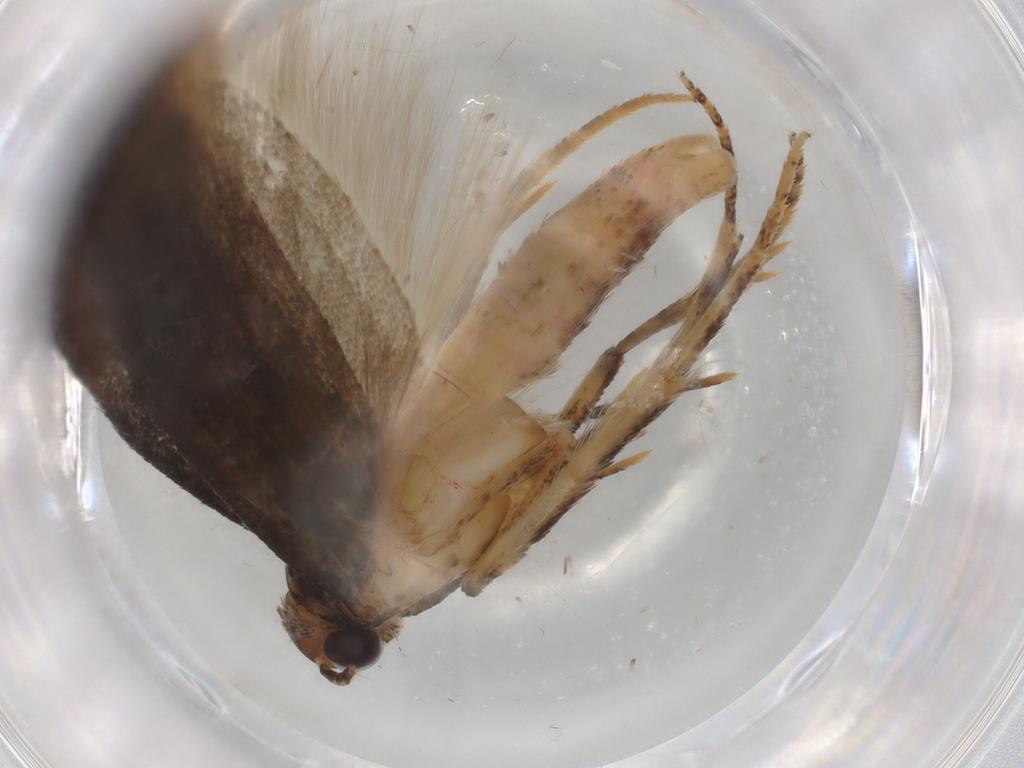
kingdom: Animalia
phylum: Arthropoda
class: Insecta
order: Lepidoptera
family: Gelechiidae
